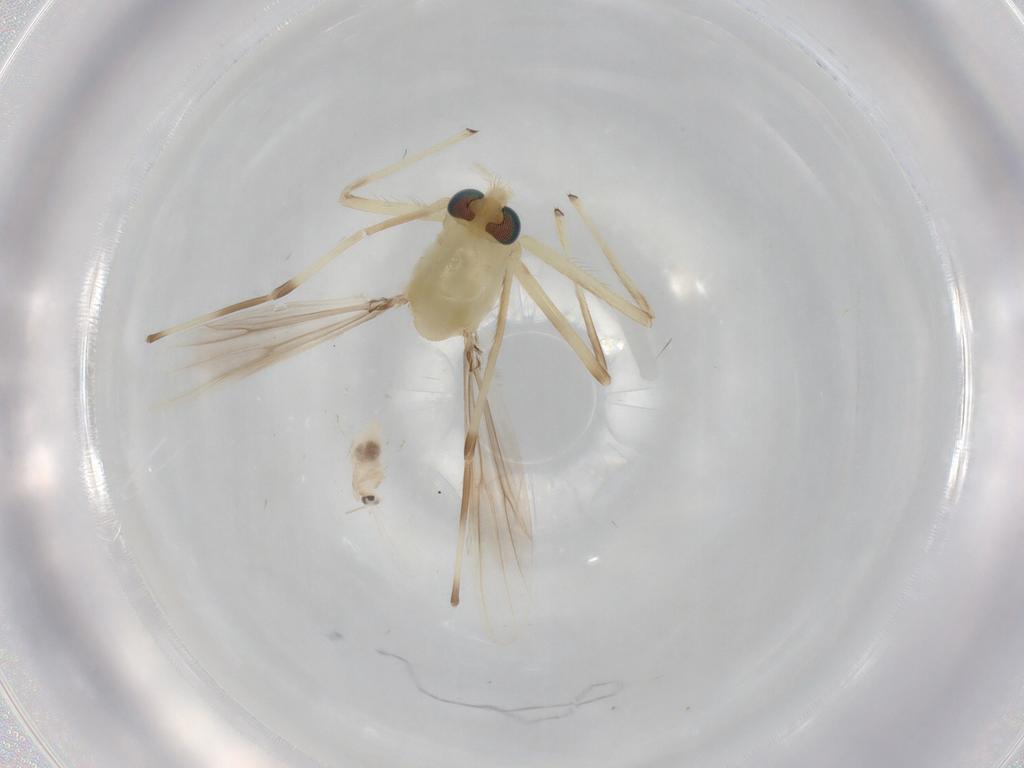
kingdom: Animalia
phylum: Arthropoda
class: Insecta
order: Diptera
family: Chironomidae
